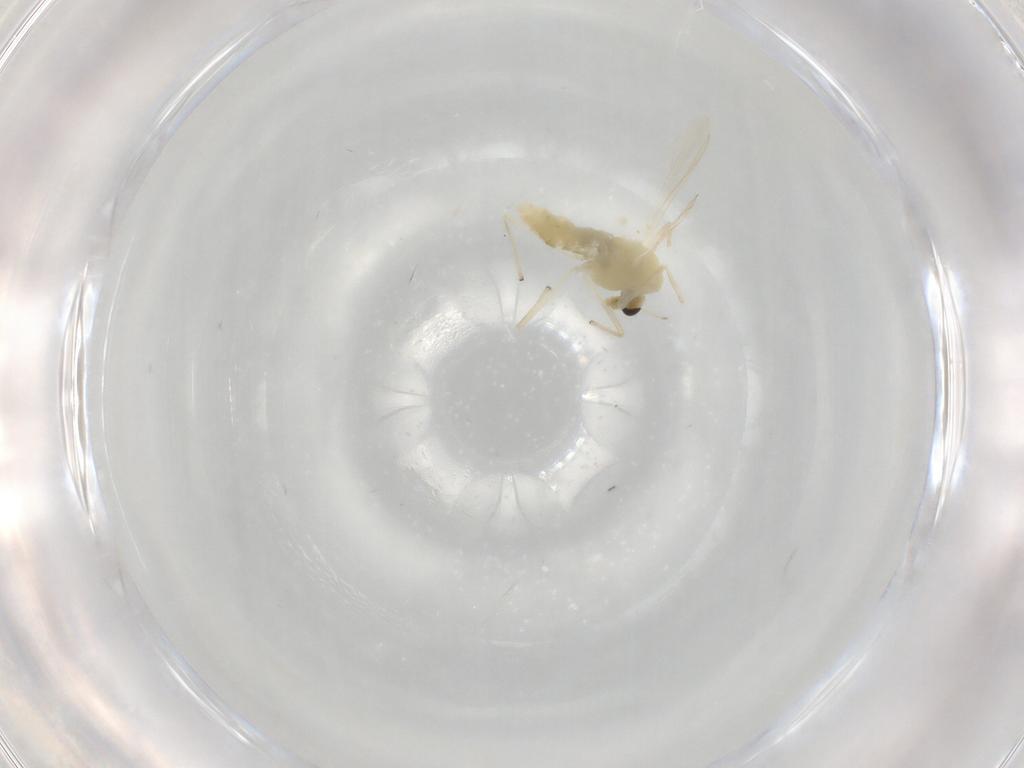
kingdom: Animalia
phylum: Arthropoda
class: Insecta
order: Diptera
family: Chironomidae
